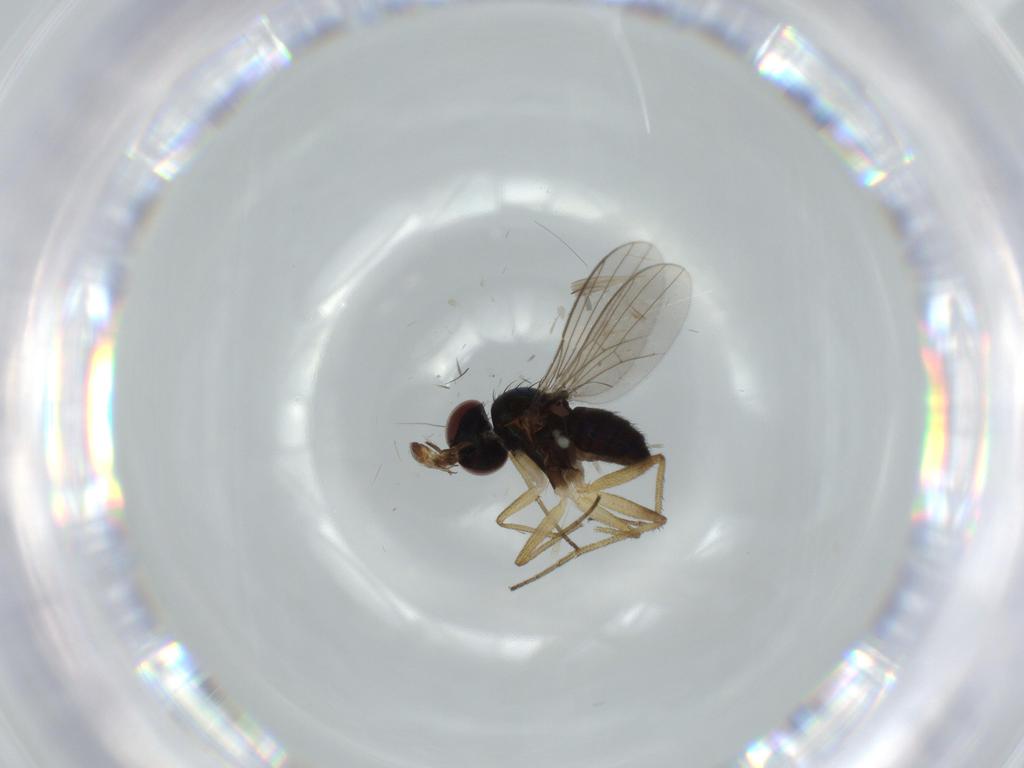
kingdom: Animalia
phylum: Arthropoda
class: Insecta
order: Diptera
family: Dolichopodidae
